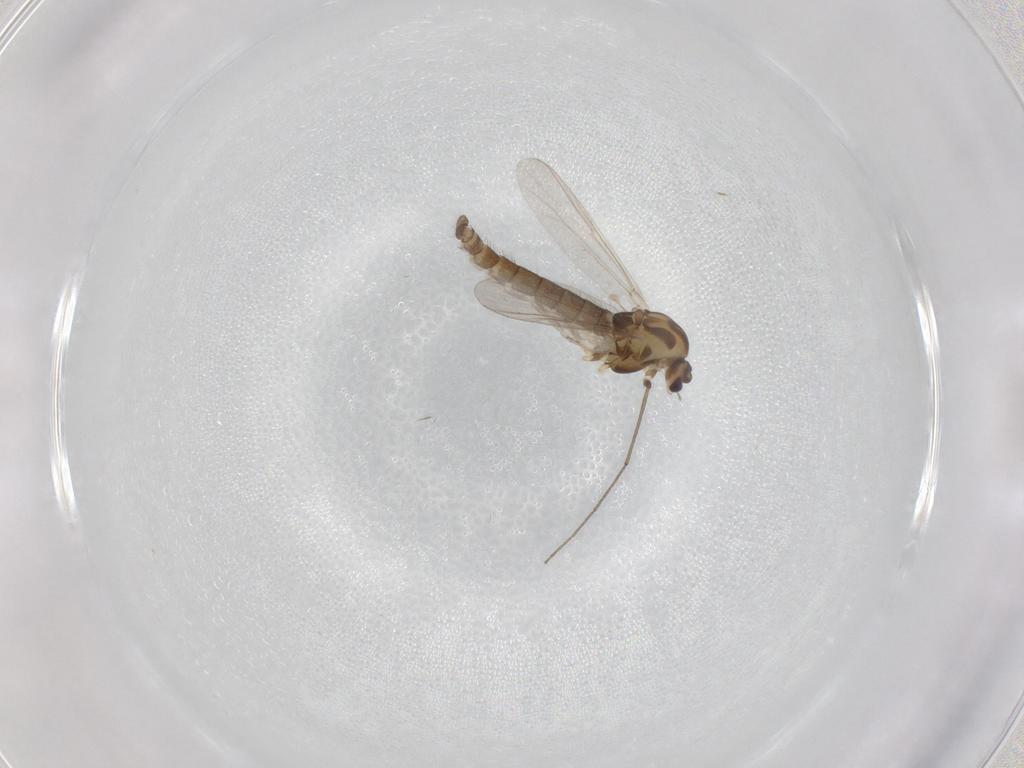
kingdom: Animalia
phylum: Arthropoda
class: Insecta
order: Diptera
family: Chironomidae
